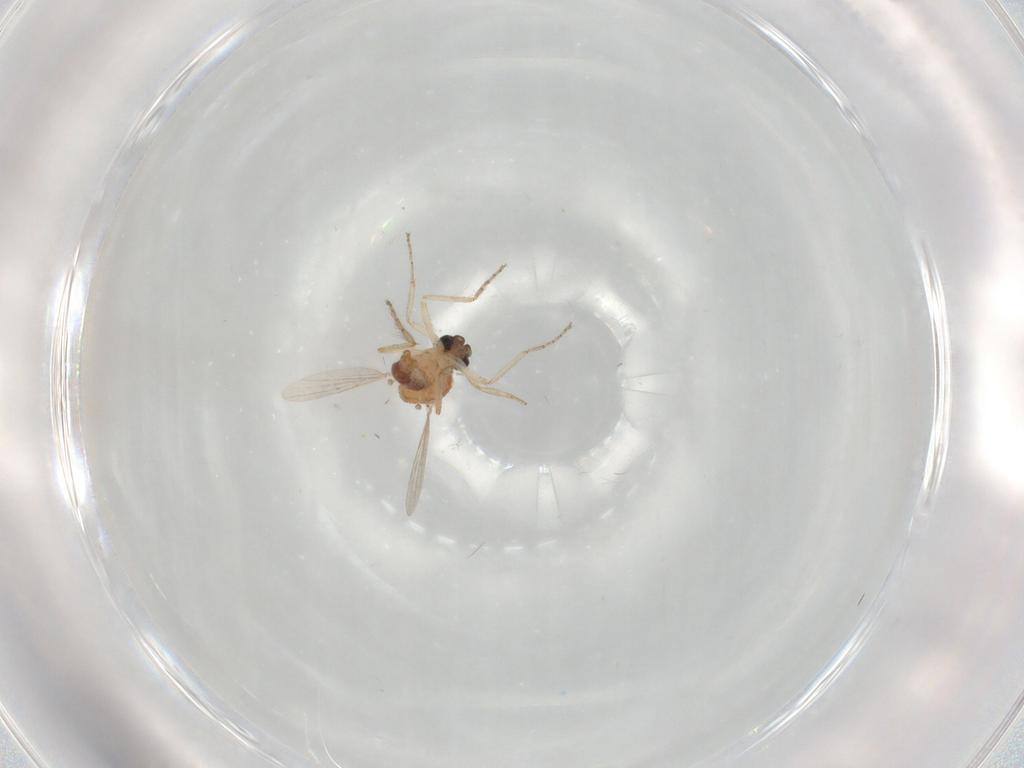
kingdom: Animalia
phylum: Arthropoda
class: Insecta
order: Diptera
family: Ceratopogonidae
